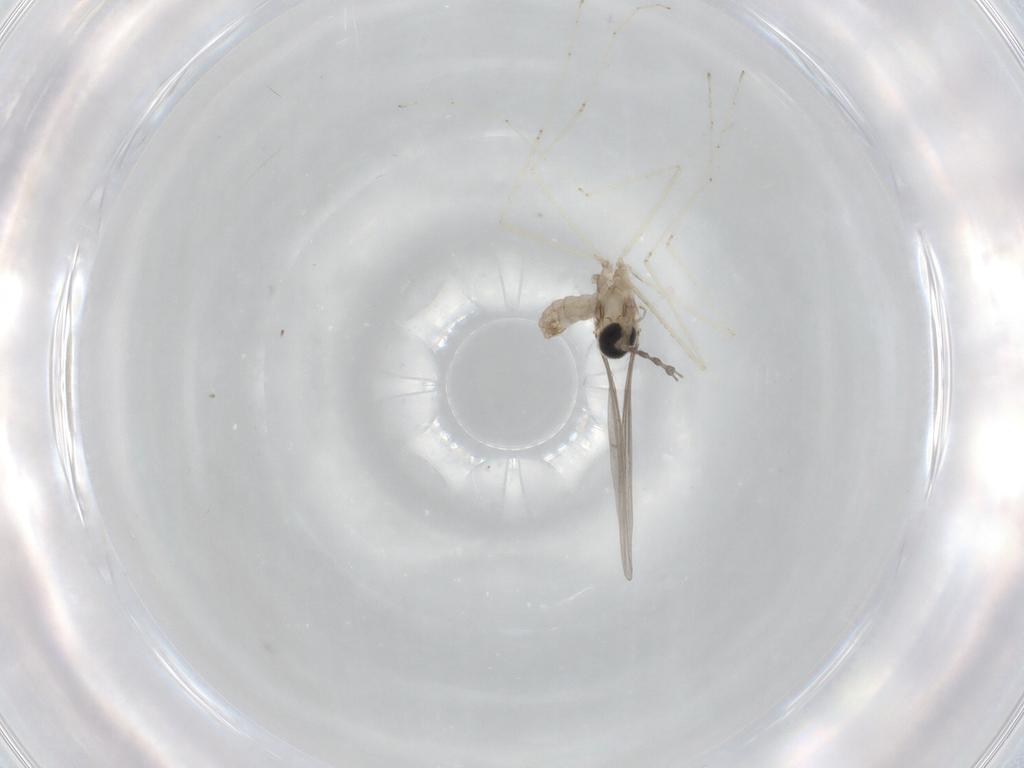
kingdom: Animalia
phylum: Arthropoda
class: Insecta
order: Diptera
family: Cecidomyiidae
